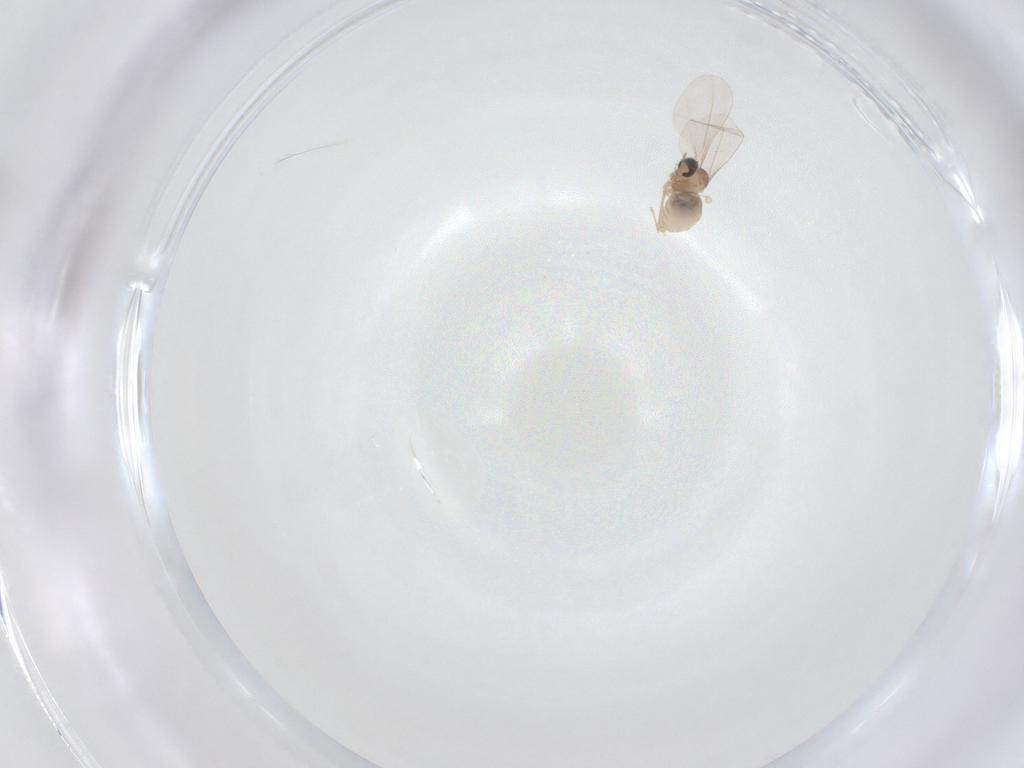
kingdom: Animalia
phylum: Arthropoda
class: Insecta
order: Diptera
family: Cecidomyiidae
